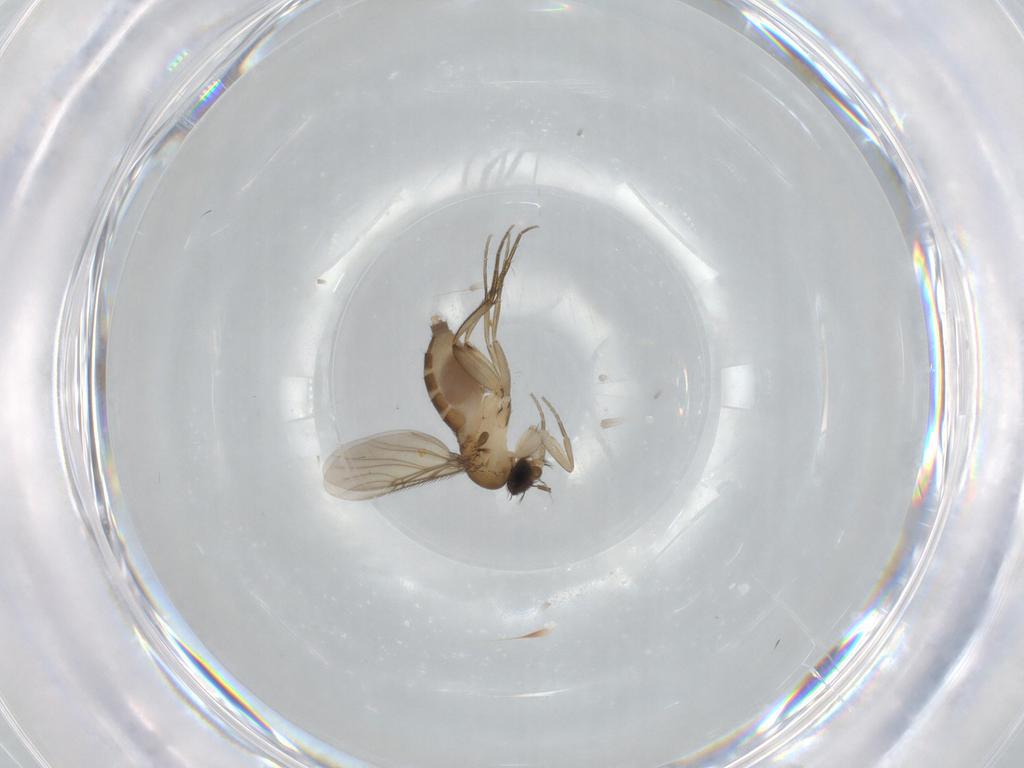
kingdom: Animalia
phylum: Arthropoda
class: Insecta
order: Diptera
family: Phoridae
